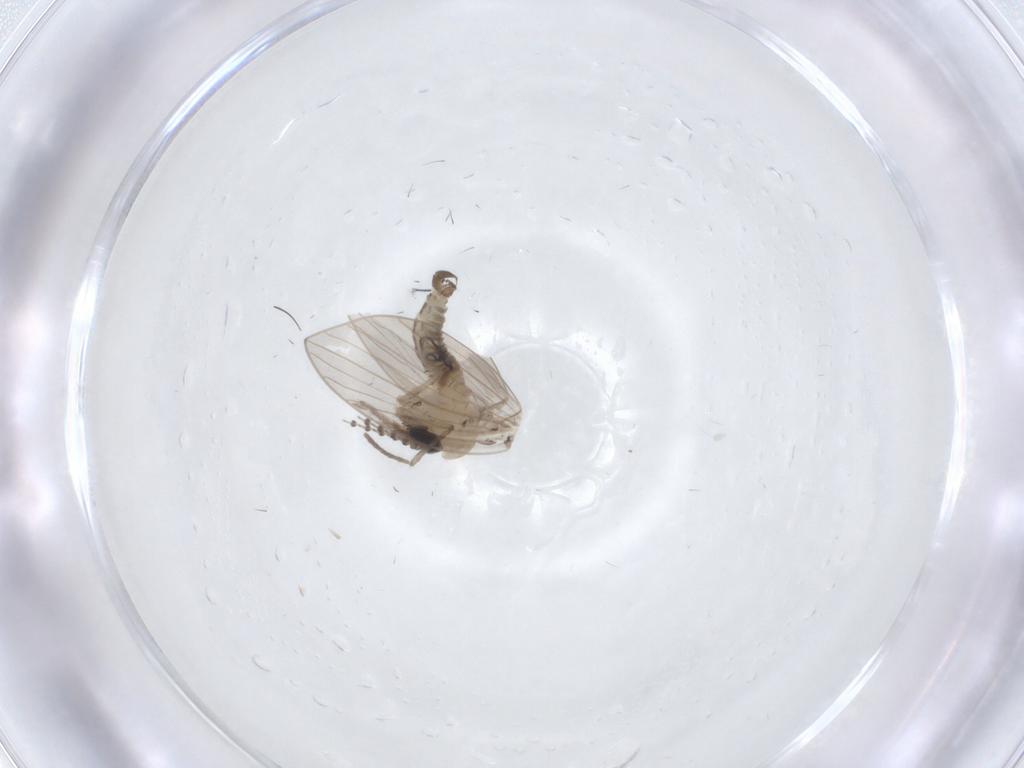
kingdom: Animalia
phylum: Arthropoda
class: Insecta
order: Diptera
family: Psychodidae
